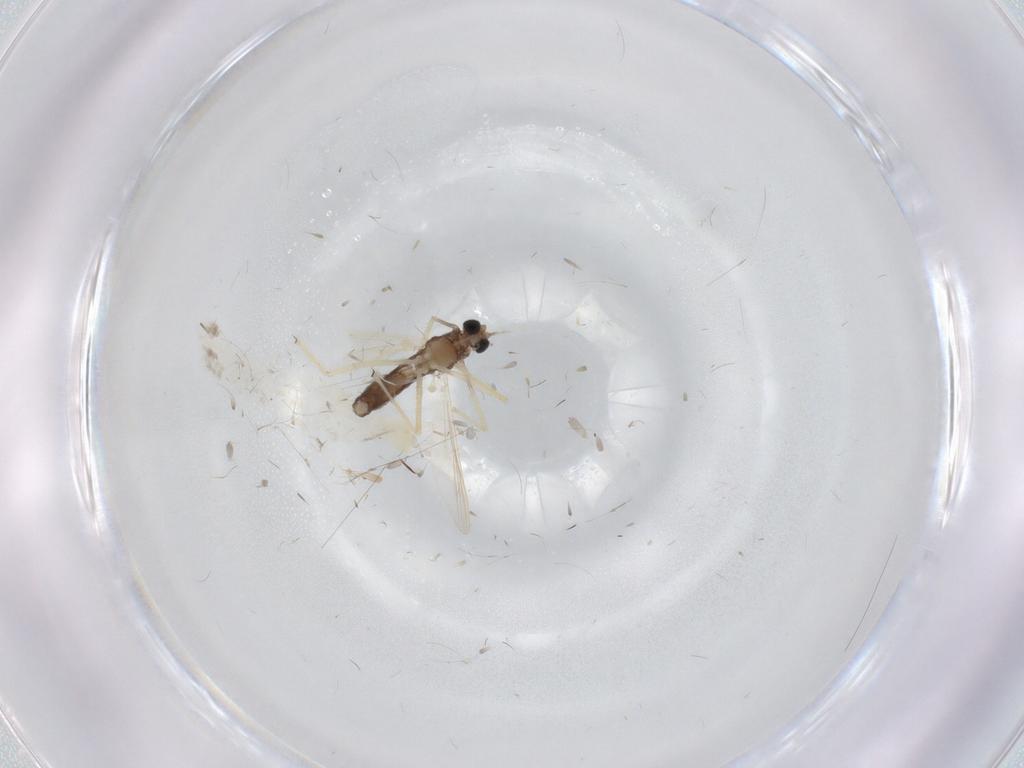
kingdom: Animalia
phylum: Arthropoda
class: Insecta
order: Diptera
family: Chironomidae
